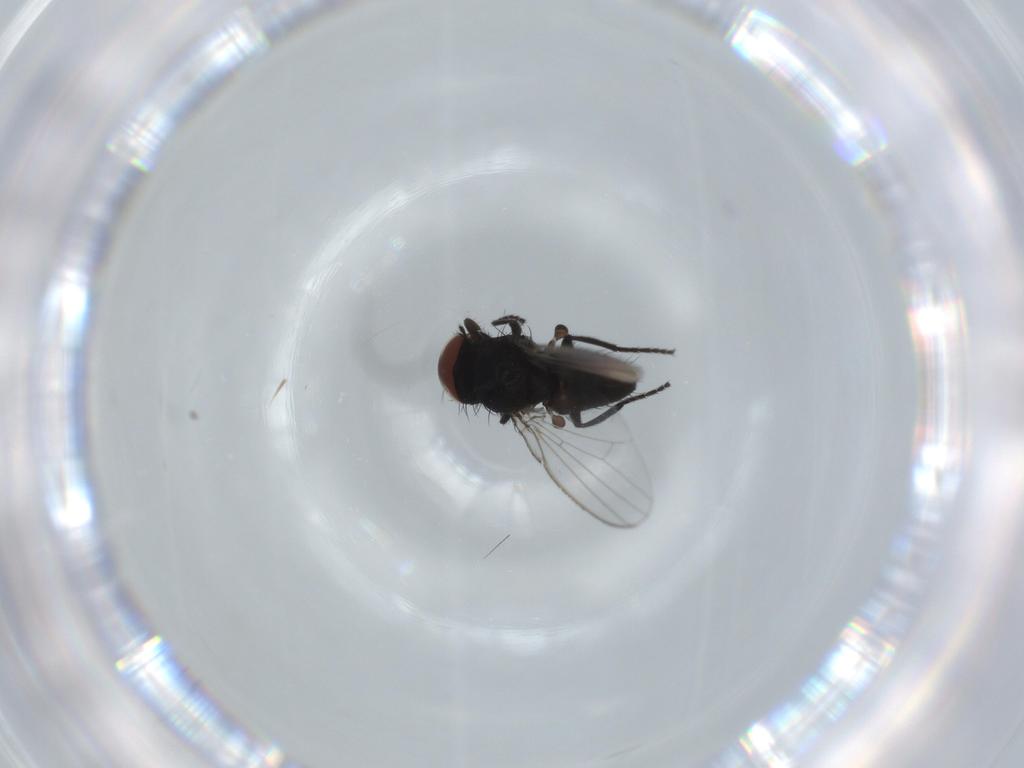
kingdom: Animalia
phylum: Arthropoda
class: Insecta
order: Diptera
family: Milichiidae
